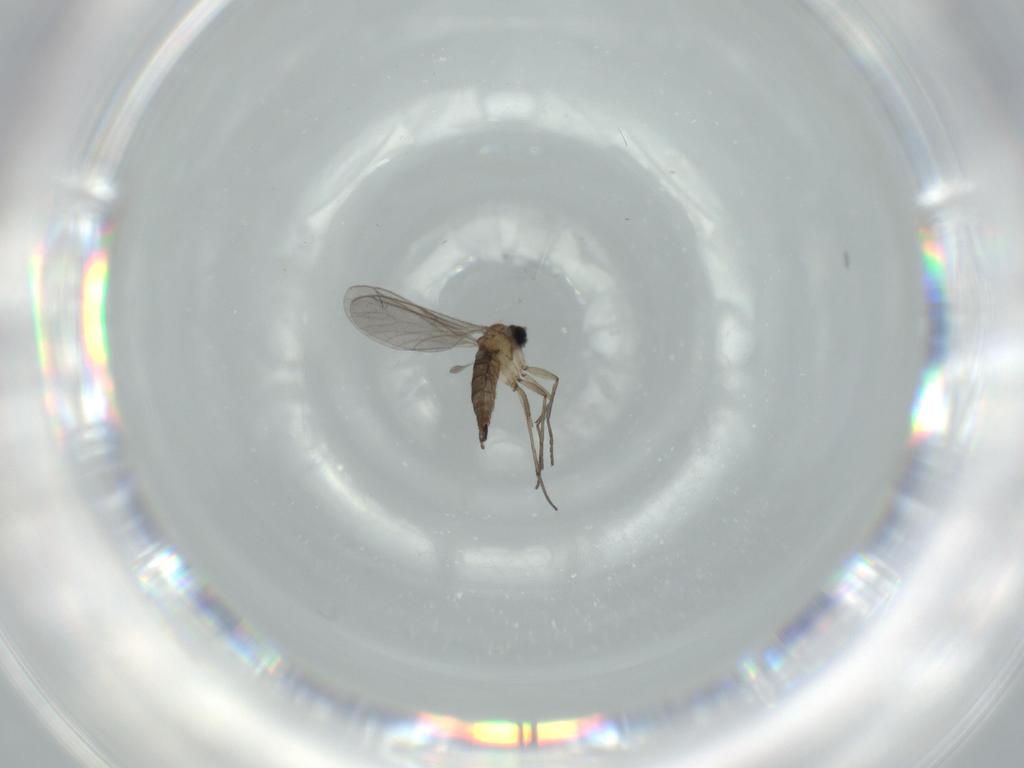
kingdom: Animalia
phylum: Arthropoda
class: Insecta
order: Diptera
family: Sciaridae
